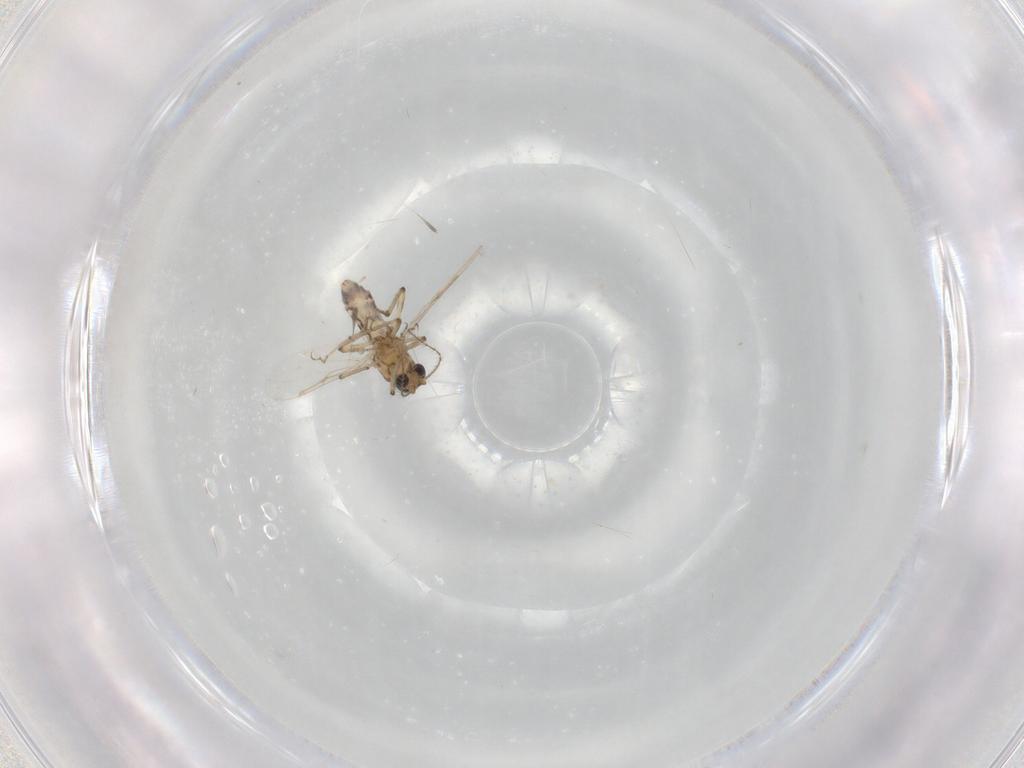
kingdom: Animalia
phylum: Arthropoda
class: Insecta
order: Diptera
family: Ceratopogonidae
